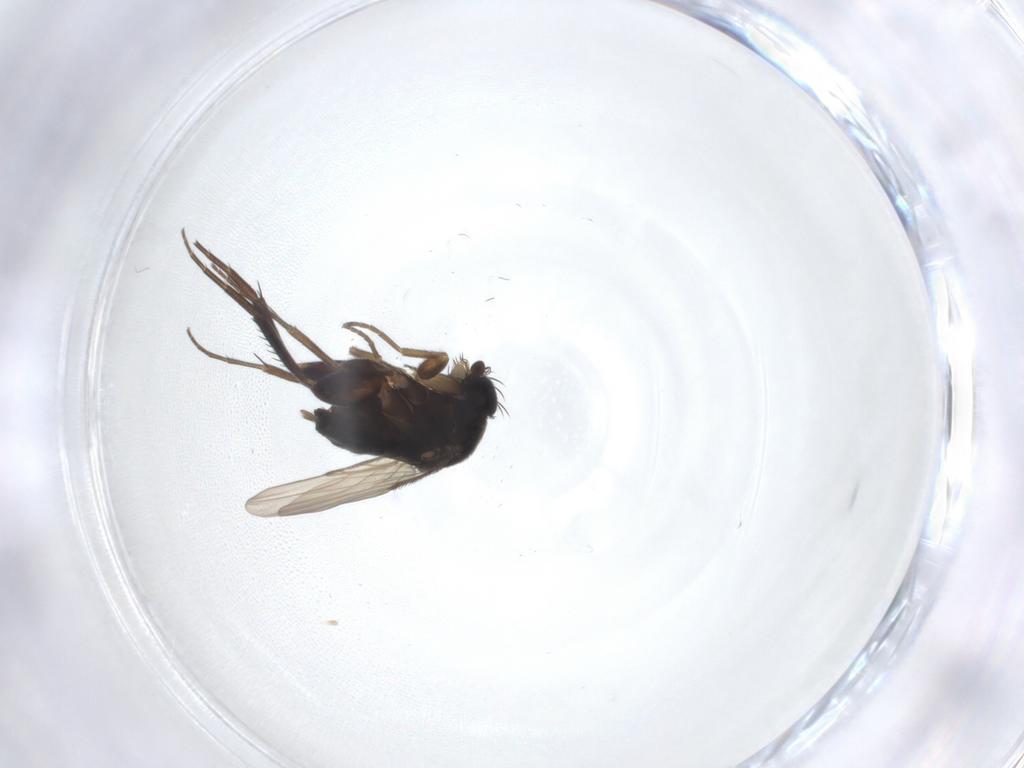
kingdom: Animalia
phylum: Arthropoda
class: Insecta
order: Diptera
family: Phoridae
